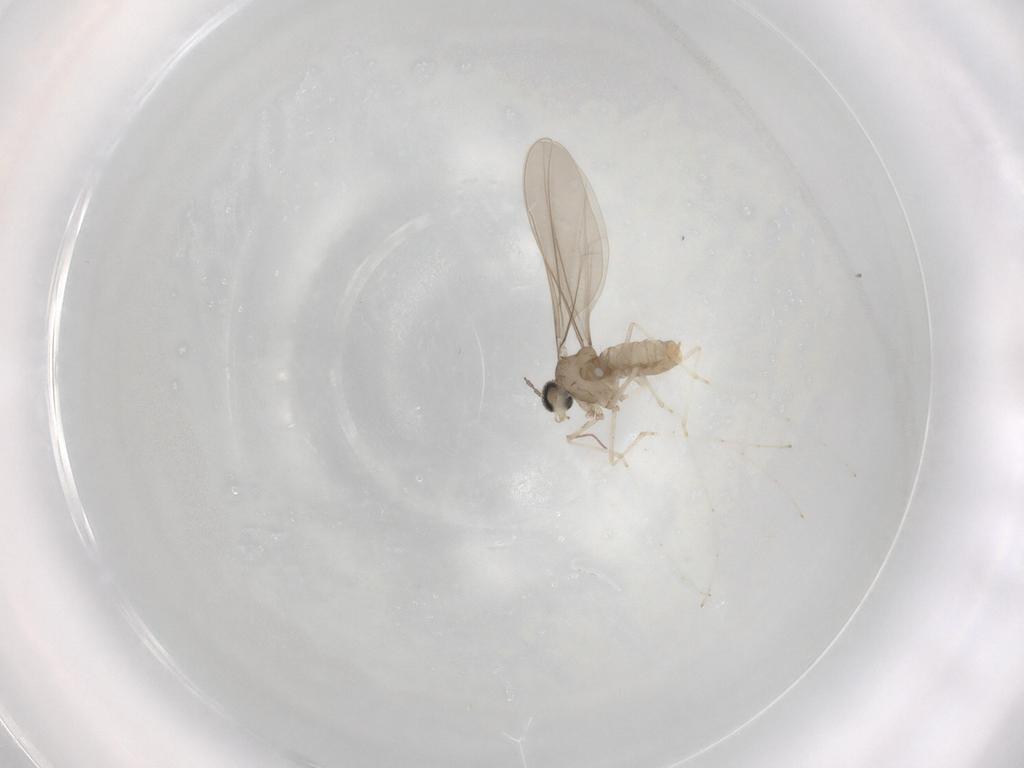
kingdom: Animalia
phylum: Arthropoda
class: Insecta
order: Diptera
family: Cecidomyiidae
